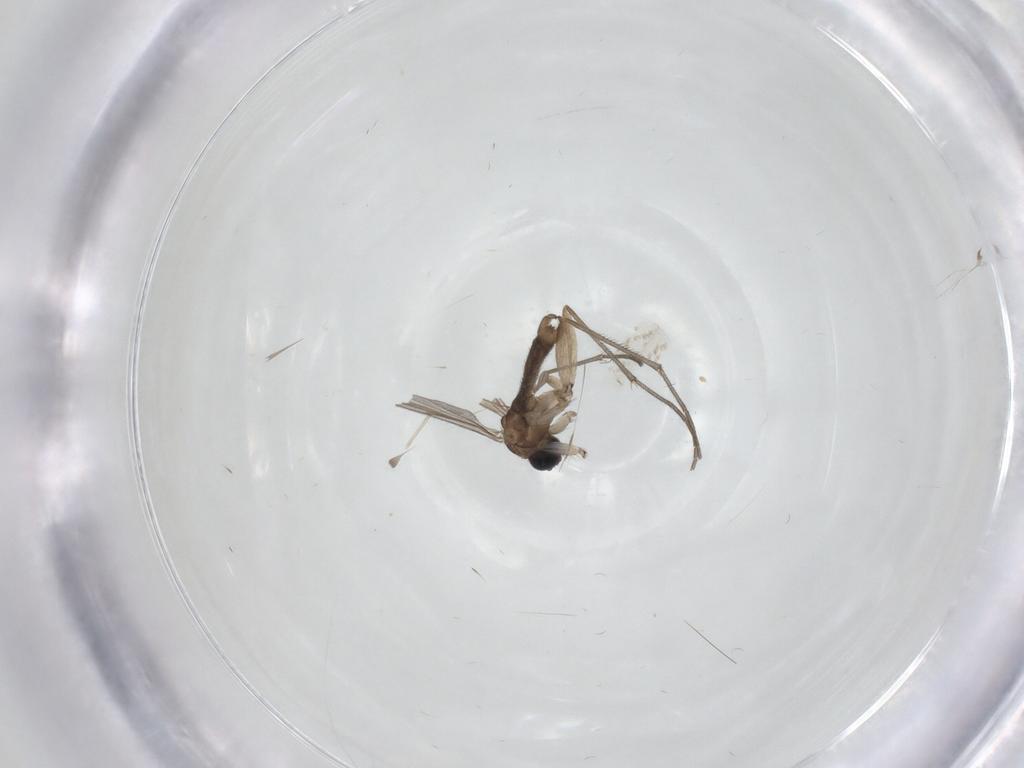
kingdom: Animalia
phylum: Arthropoda
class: Insecta
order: Diptera
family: Sciaridae
